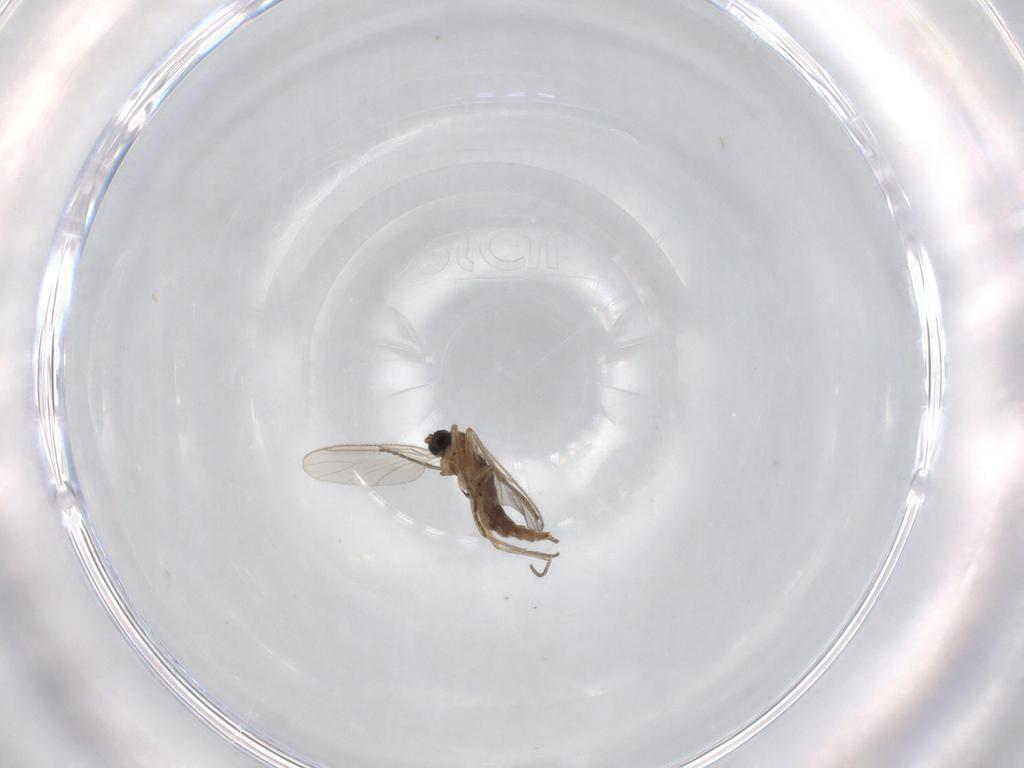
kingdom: Animalia
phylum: Arthropoda
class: Insecta
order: Diptera
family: Sciaridae
